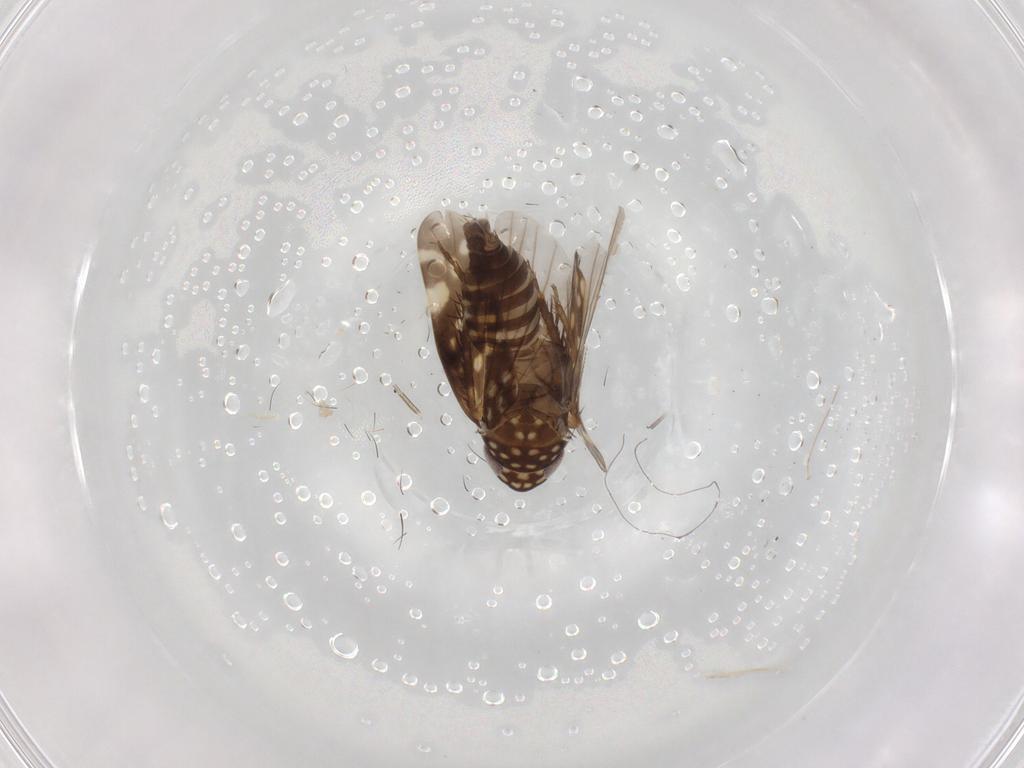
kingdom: Animalia
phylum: Arthropoda
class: Insecta
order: Hemiptera
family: Cicadellidae
